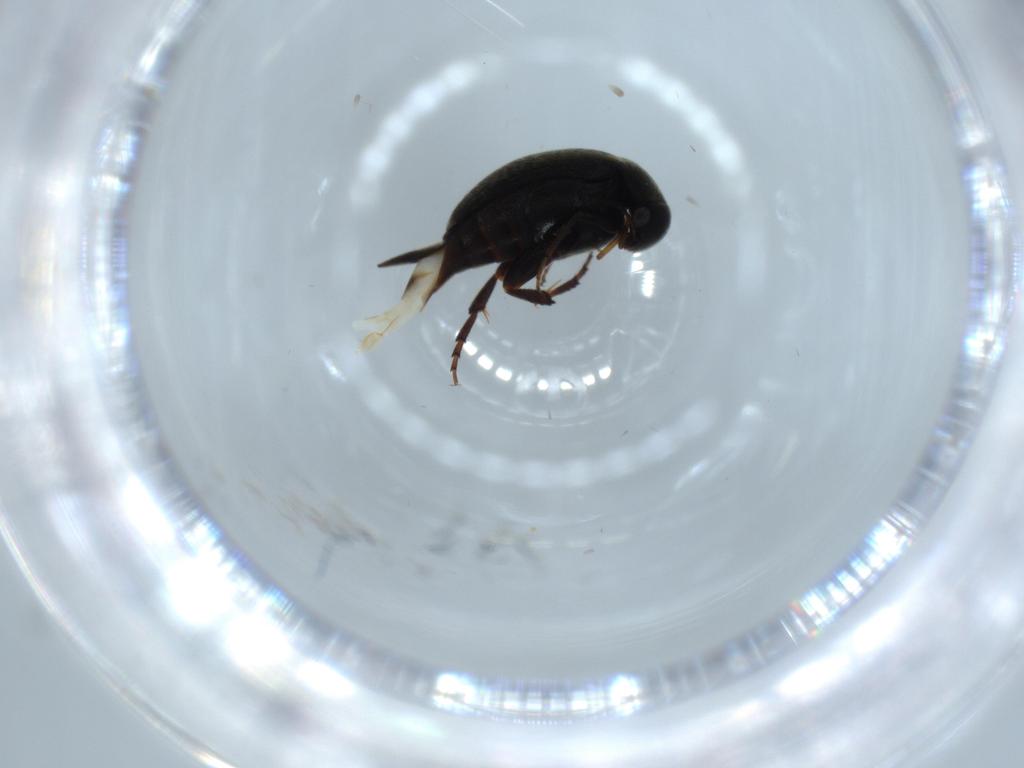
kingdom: Animalia
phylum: Arthropoda
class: Insecta
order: Coleoptera
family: Mordellidae
